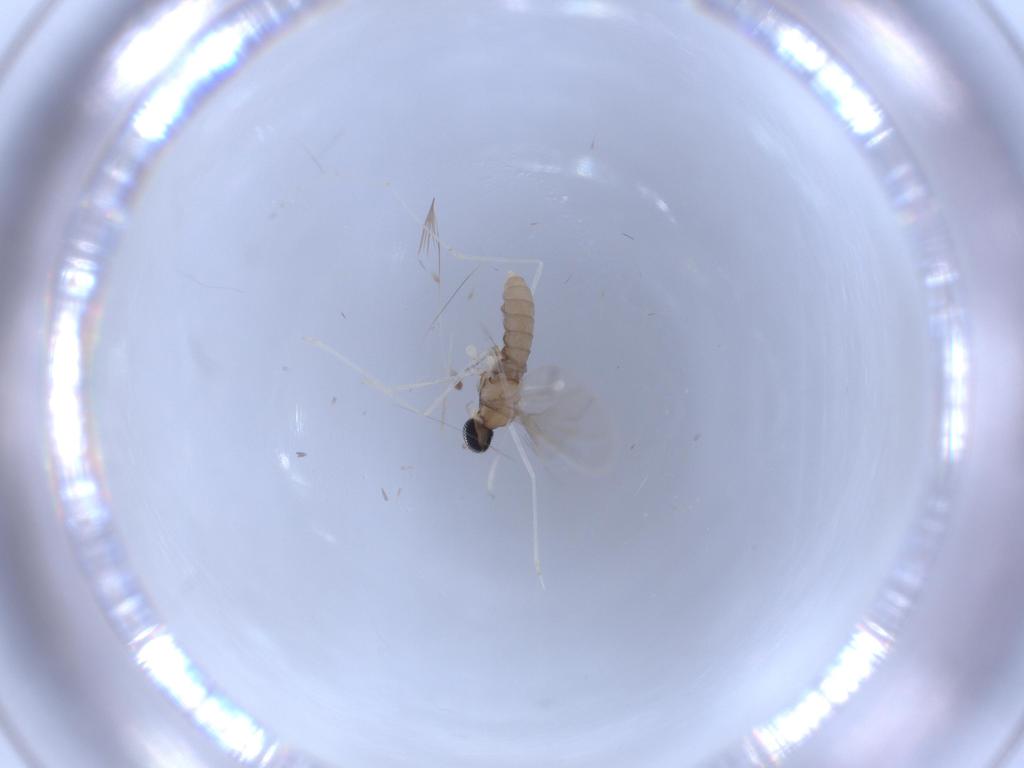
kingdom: Animalia
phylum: Arthropoda
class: Insecta
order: Diptera
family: Cecidomyiidae
